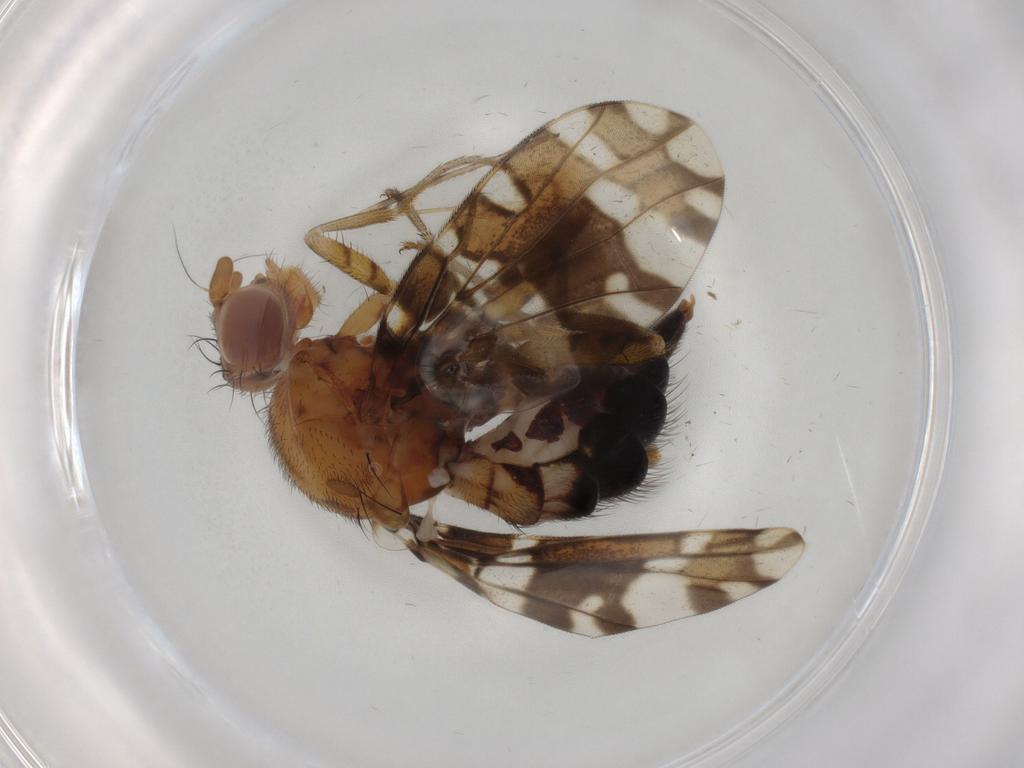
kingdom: Animalia
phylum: Arthropoda
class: Insecta
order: Diptera
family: Ulidiidae
